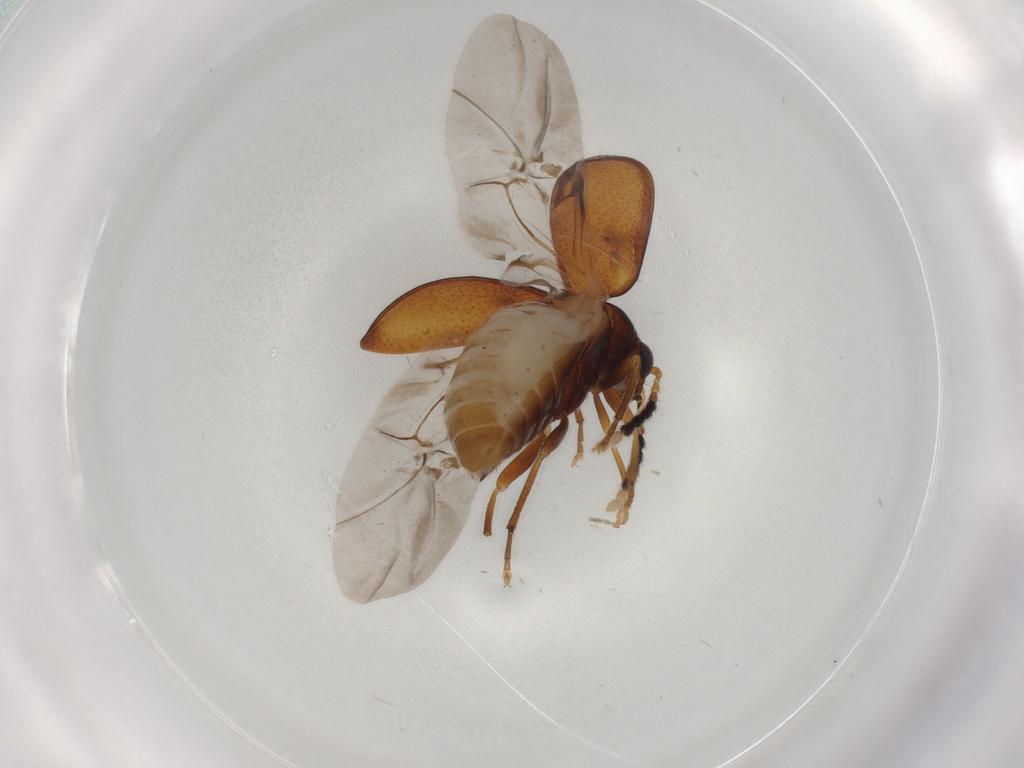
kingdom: Animalia
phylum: Arthropoda
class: Insecta
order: Coleoptera
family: Chrysomelidae
